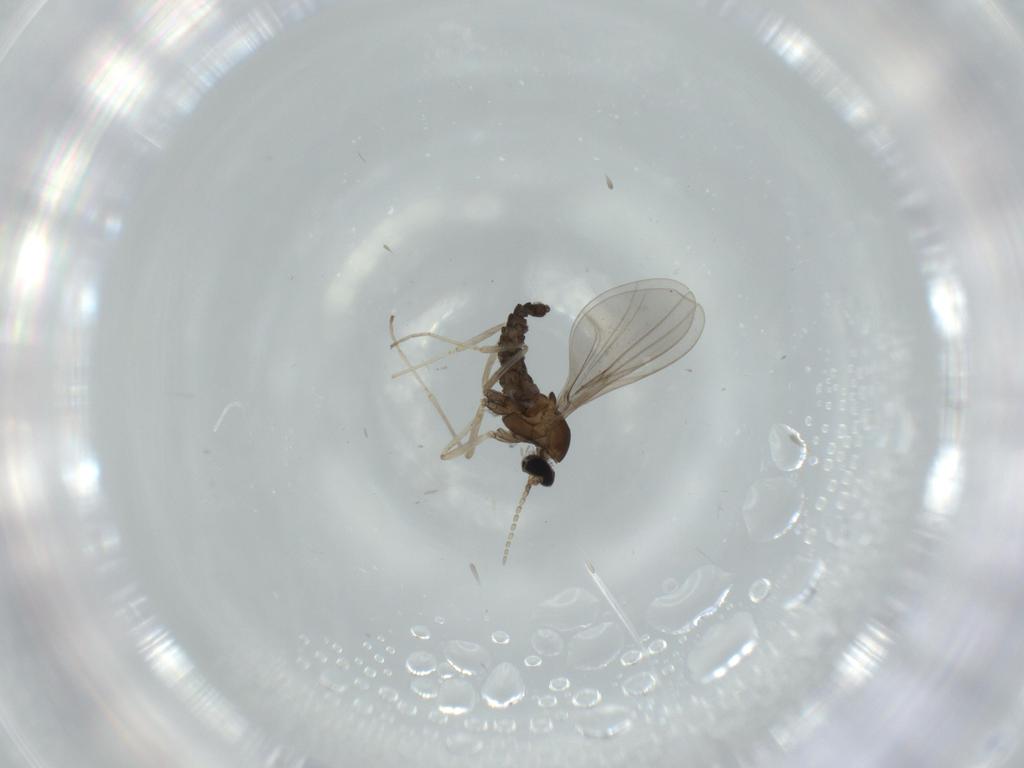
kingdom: Animalia
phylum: Arthropoda
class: Insecta
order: Diptera
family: Cecidomyiidae
